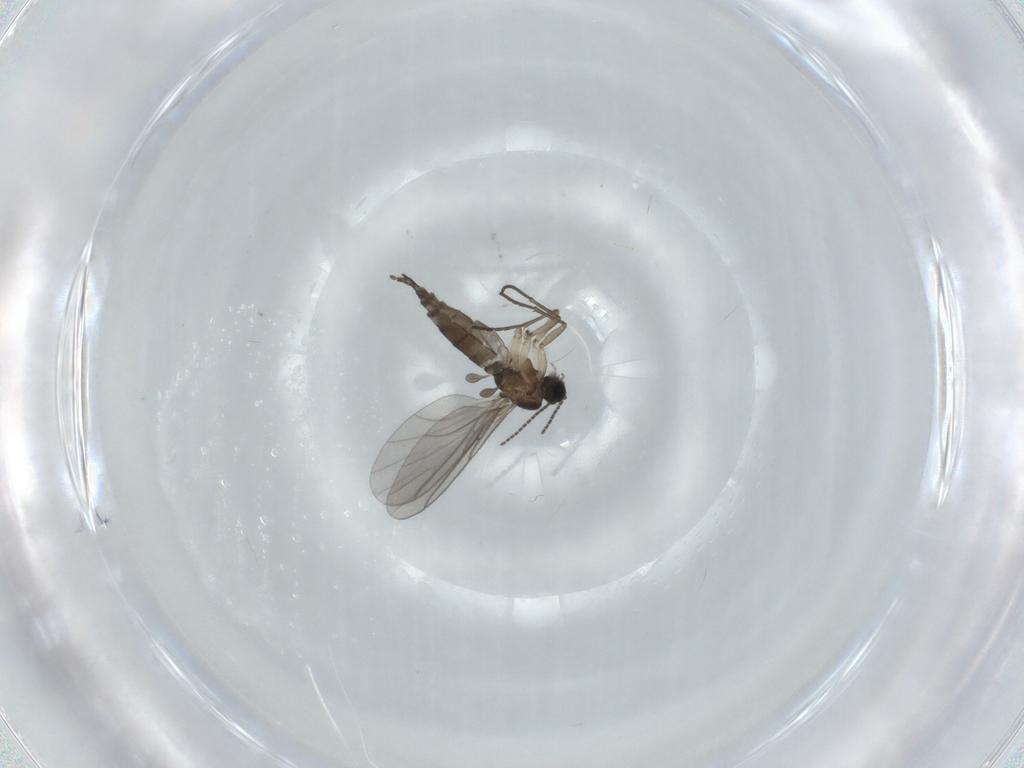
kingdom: Animalia
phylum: Arthropoda
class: Insecta
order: Diptera
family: Sciaridae
